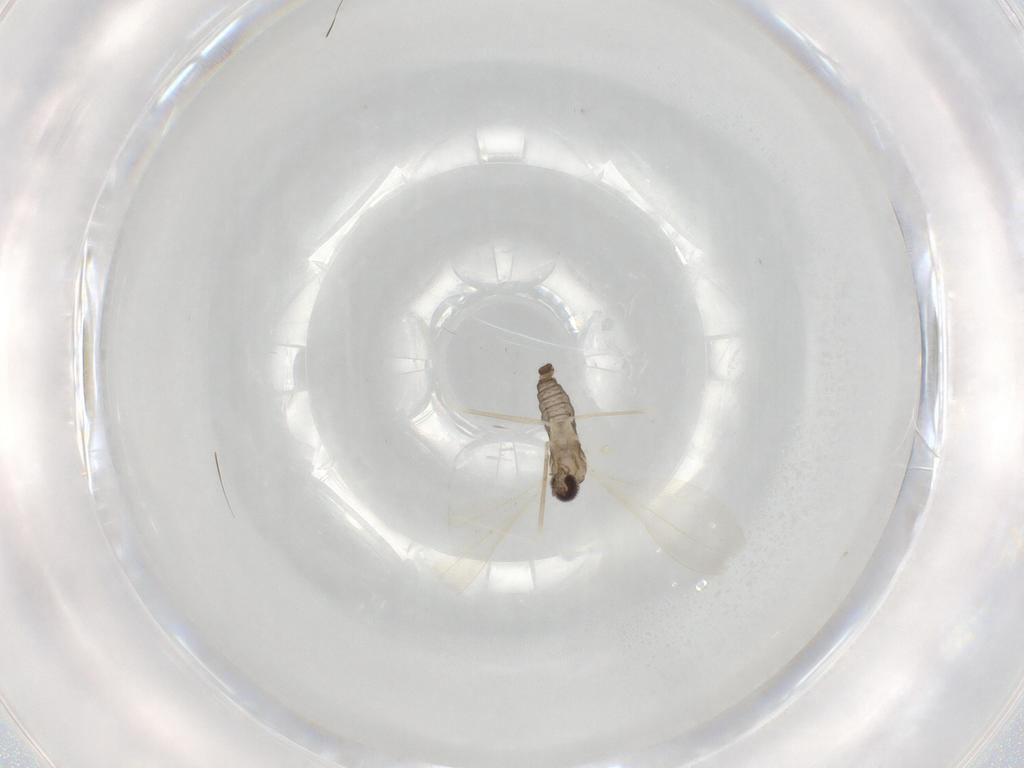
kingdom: Animalia
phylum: Arthropoda
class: Insecta
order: Diptera
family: Cecidomyiidae
